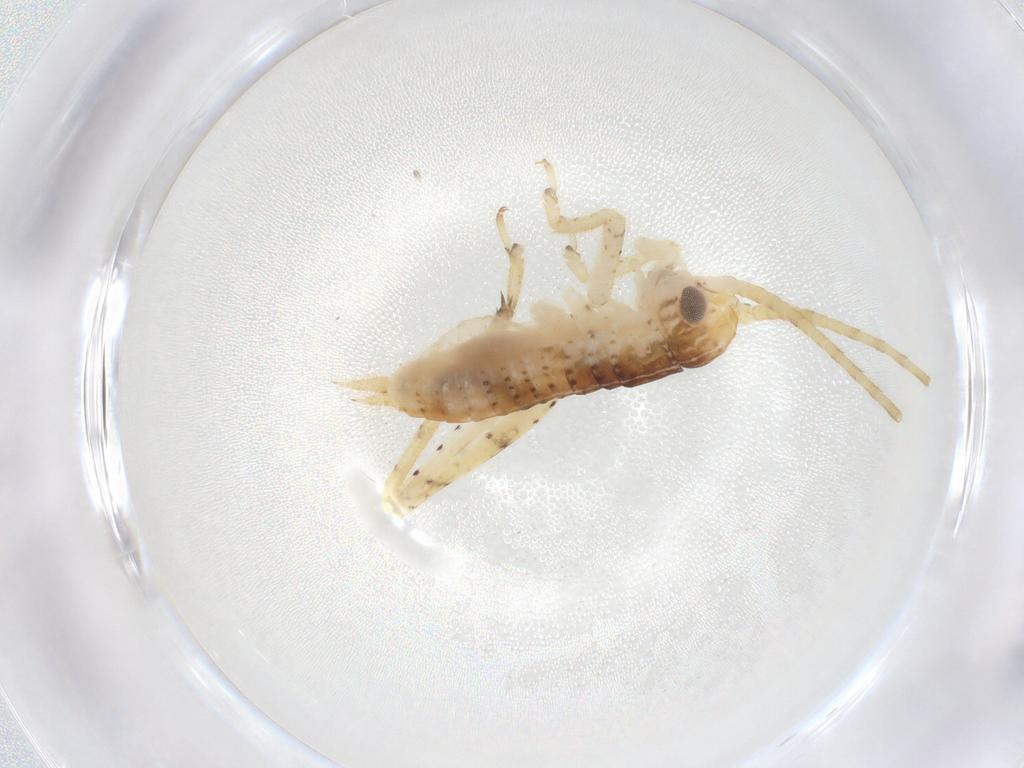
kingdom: Animalia
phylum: Arthropoda
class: Insecta
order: Orthoptera
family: Gryllidae
